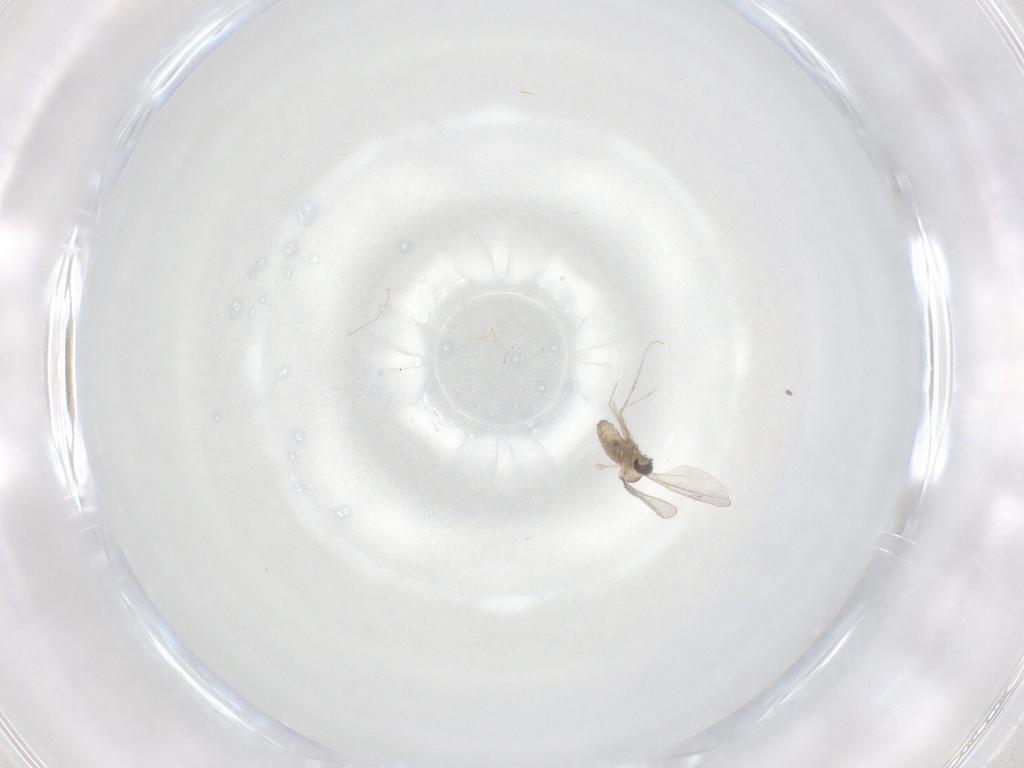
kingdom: Animalia
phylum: Arthropoda
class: Insecta
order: Diptera
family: Cecidomyiidae
